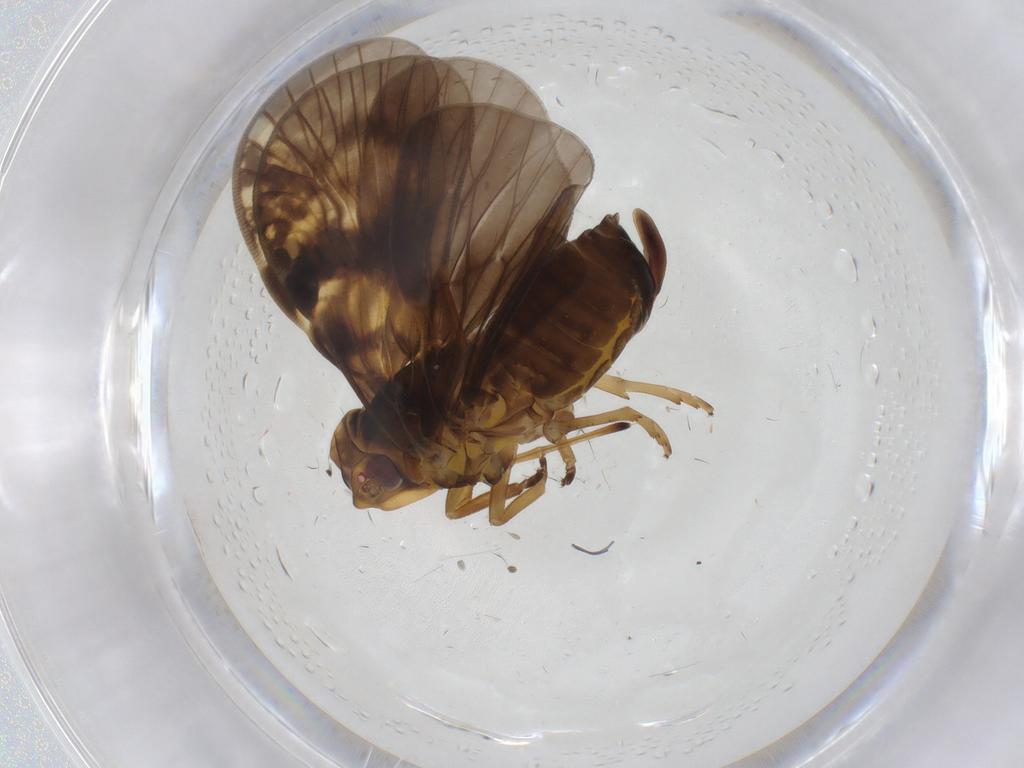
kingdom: Animalia
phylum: Arthropoda
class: Insecta
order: Hemiptera
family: Cixiidae
